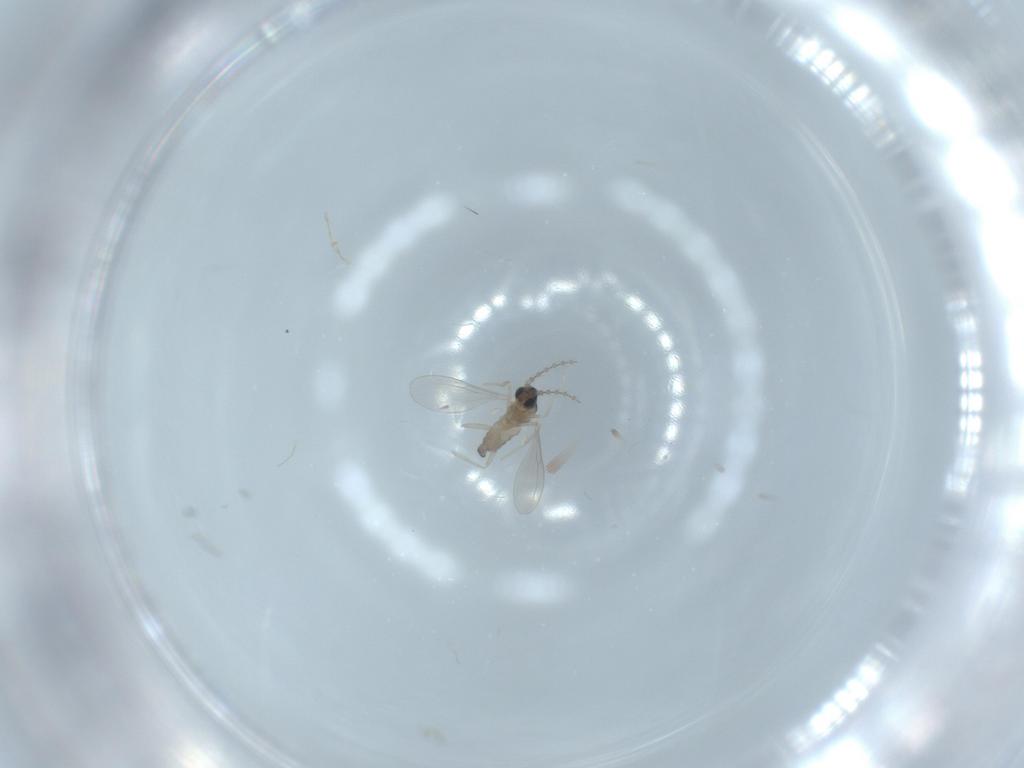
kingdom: Animalia
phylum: Arthropoda
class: Insecta
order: Diptera
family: Cecidomyiidae
